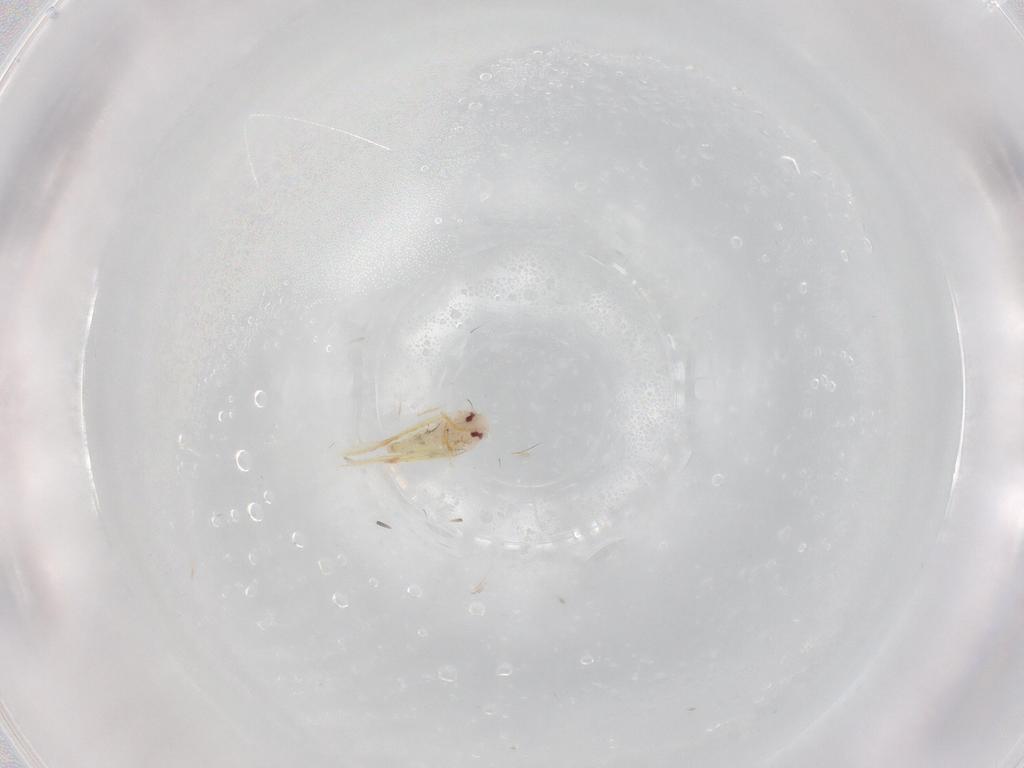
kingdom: Animalia
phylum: Arthropoda
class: Insecta
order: Hemiptera
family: Aleyrodidae
